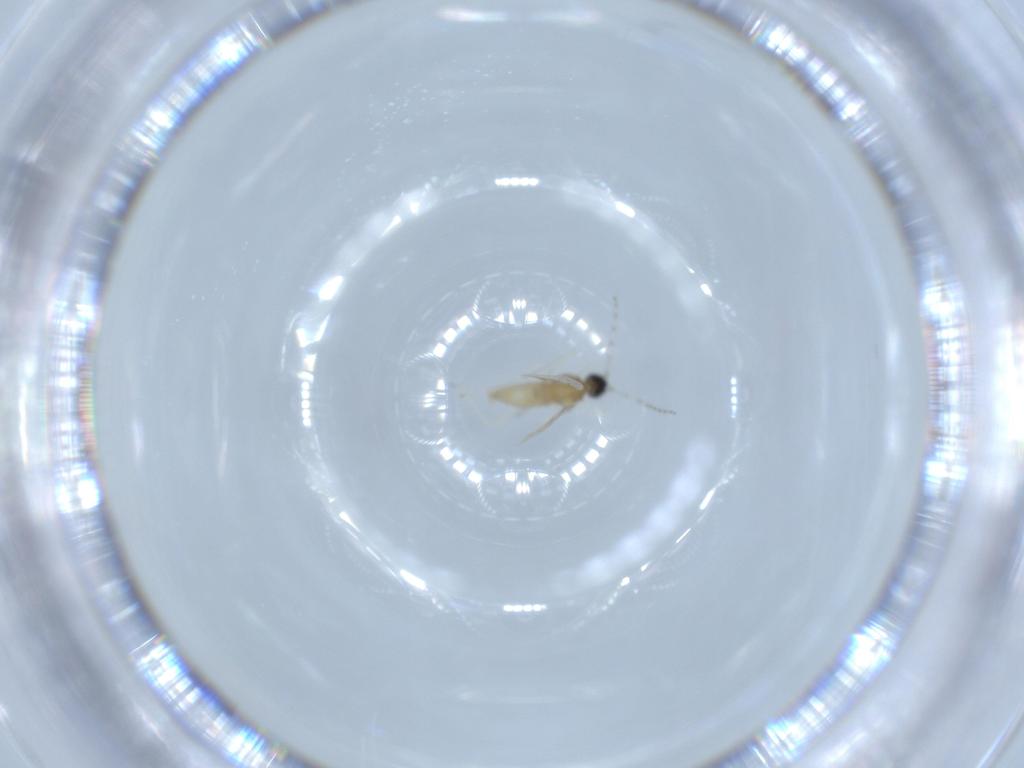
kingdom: Animalia
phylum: Arthropoda
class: Insecta
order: Diptera
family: Cecidomyiidae
